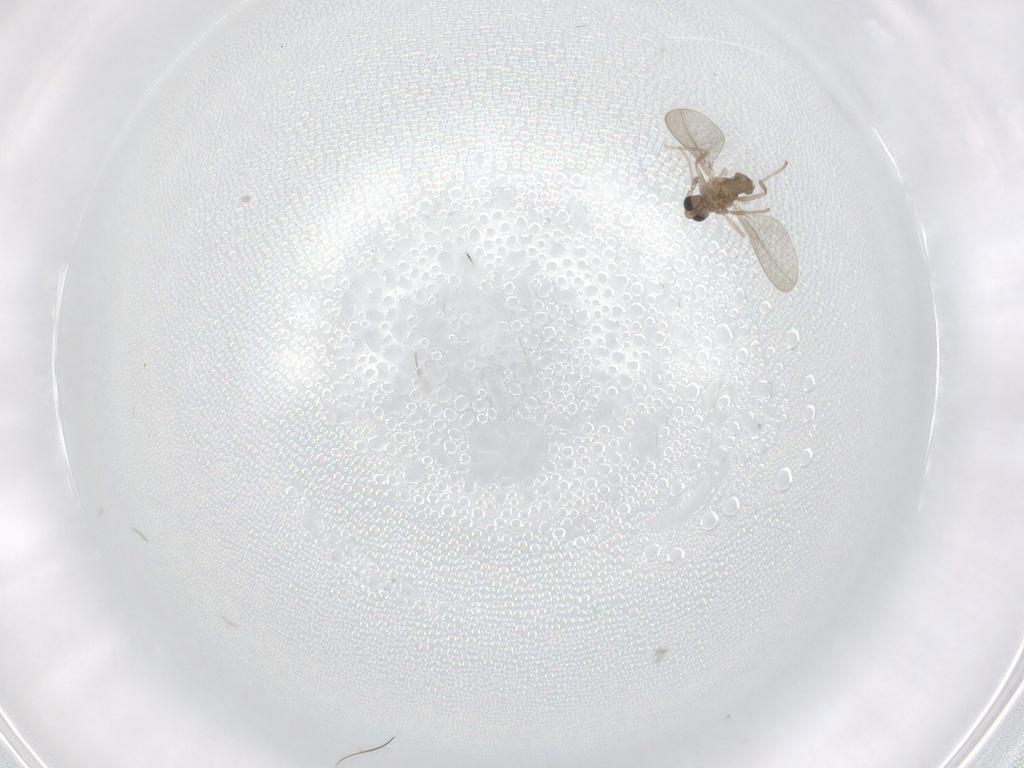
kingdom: Animalia
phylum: Arthropoda
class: Insecta
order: Diptera
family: Cecidomyiidae
